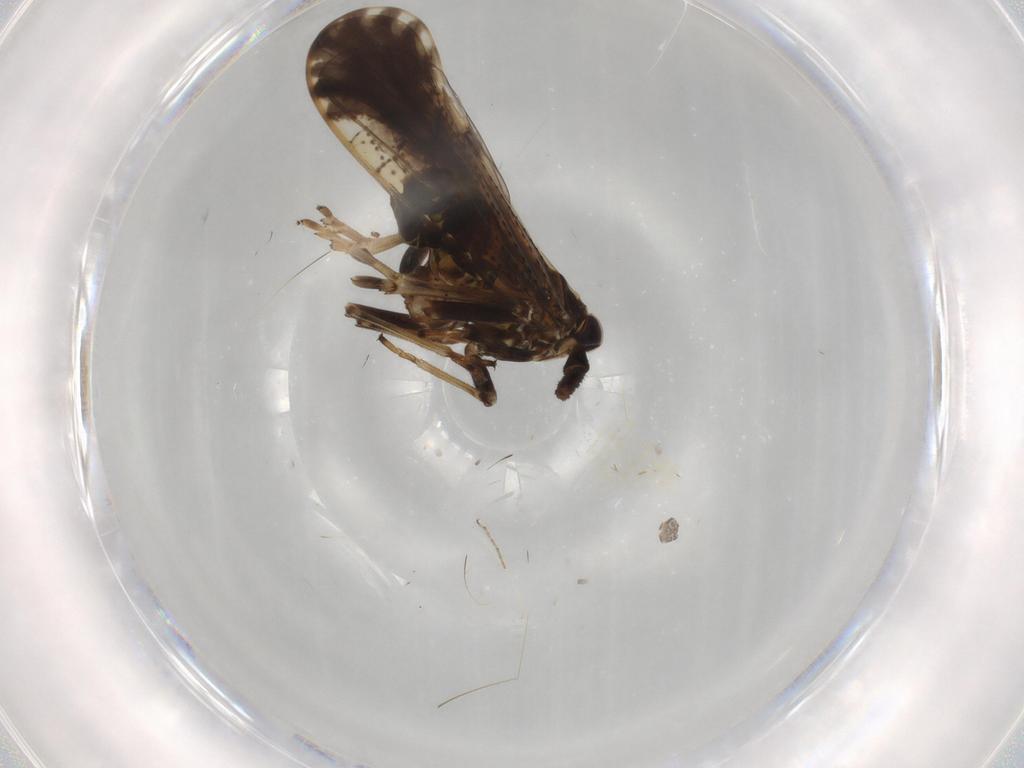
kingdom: Animalia
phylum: Arthropoda
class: Insecta
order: Hemiptera
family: Delphacidae
